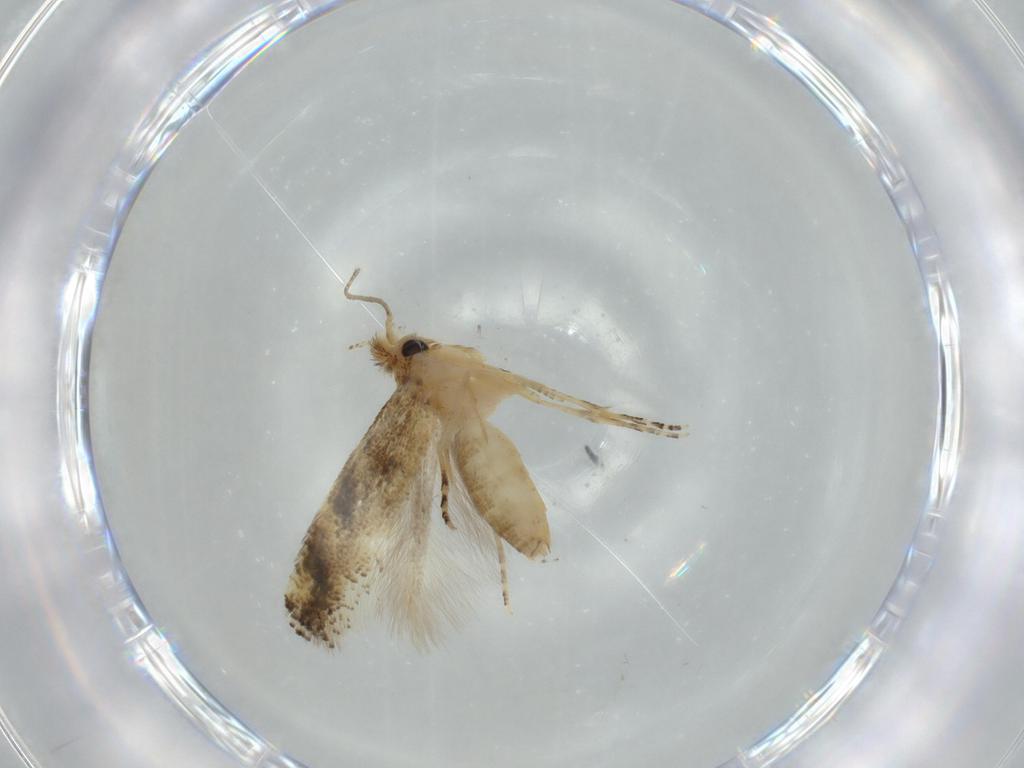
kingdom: Animalia
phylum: Arthropoda
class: Insecta
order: Lepidoptera
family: Bucculatricidae
